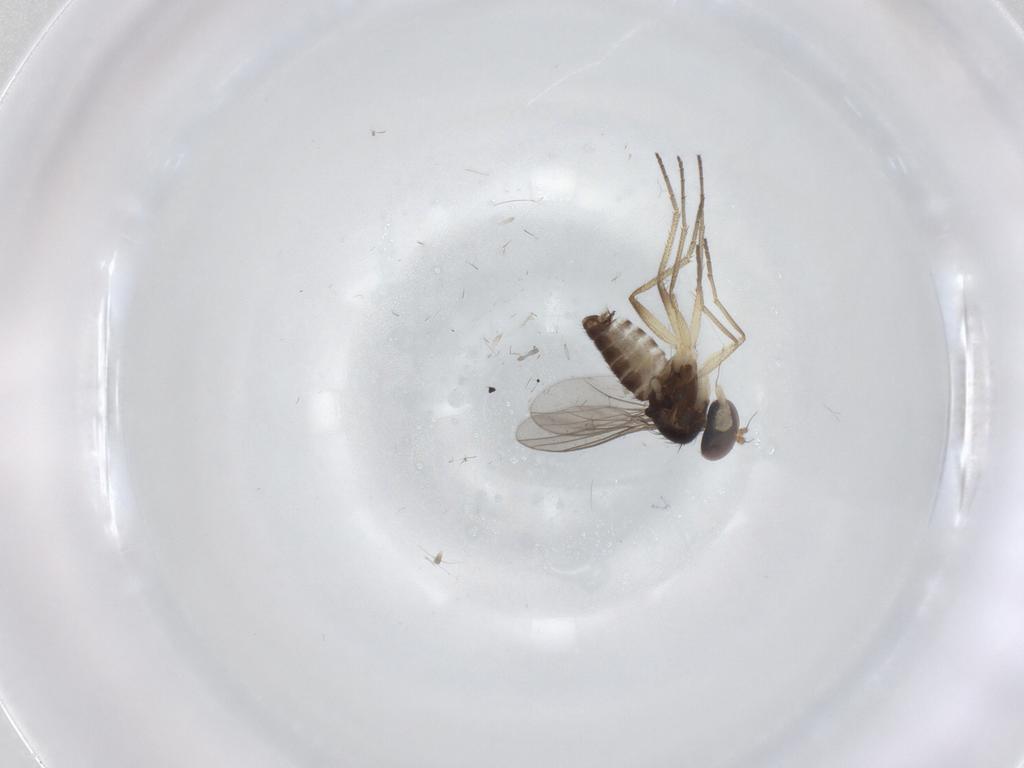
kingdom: Animalia
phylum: Arthropoda
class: Insecta
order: Diptera
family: Dolichopodidae
